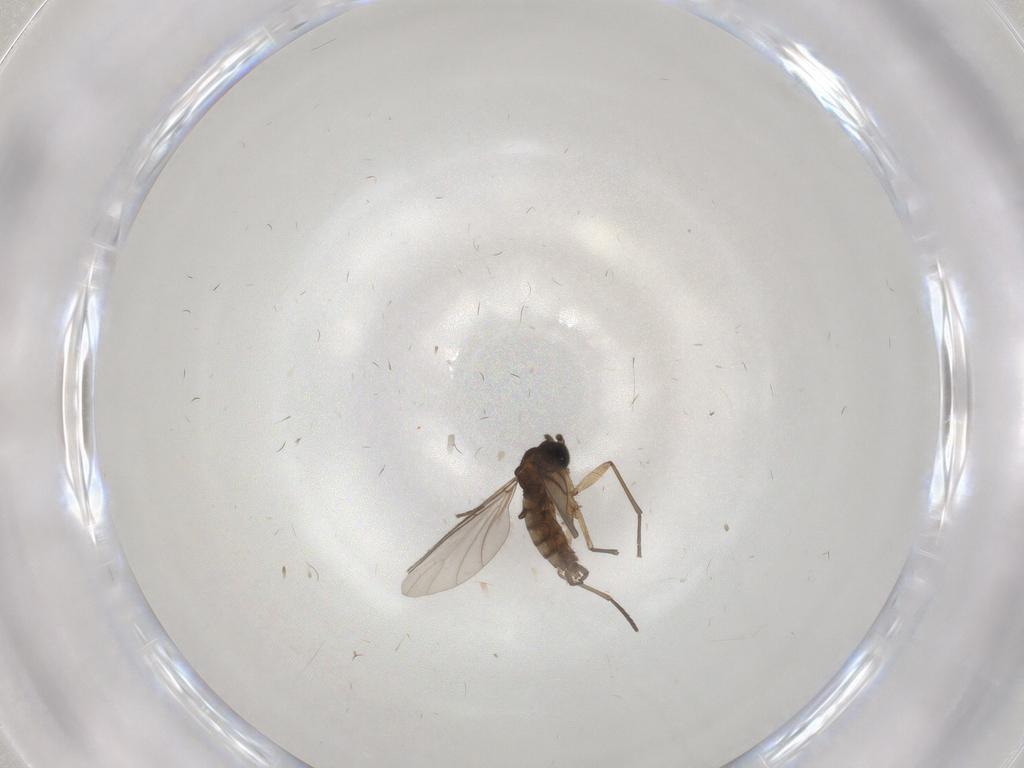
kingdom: Animalia
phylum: Arthropoda
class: Insecta
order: Diptera
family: Sciaridae
